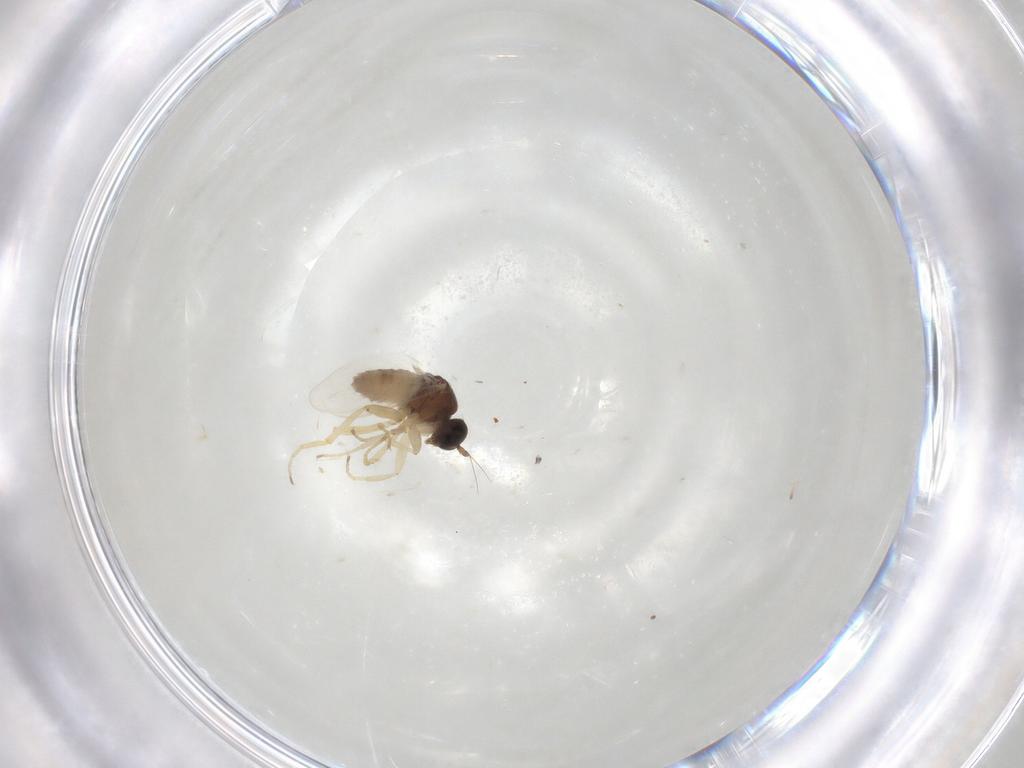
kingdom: Animalia
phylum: Arthropoda
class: Insecta
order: Diptera
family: Hybotidae
